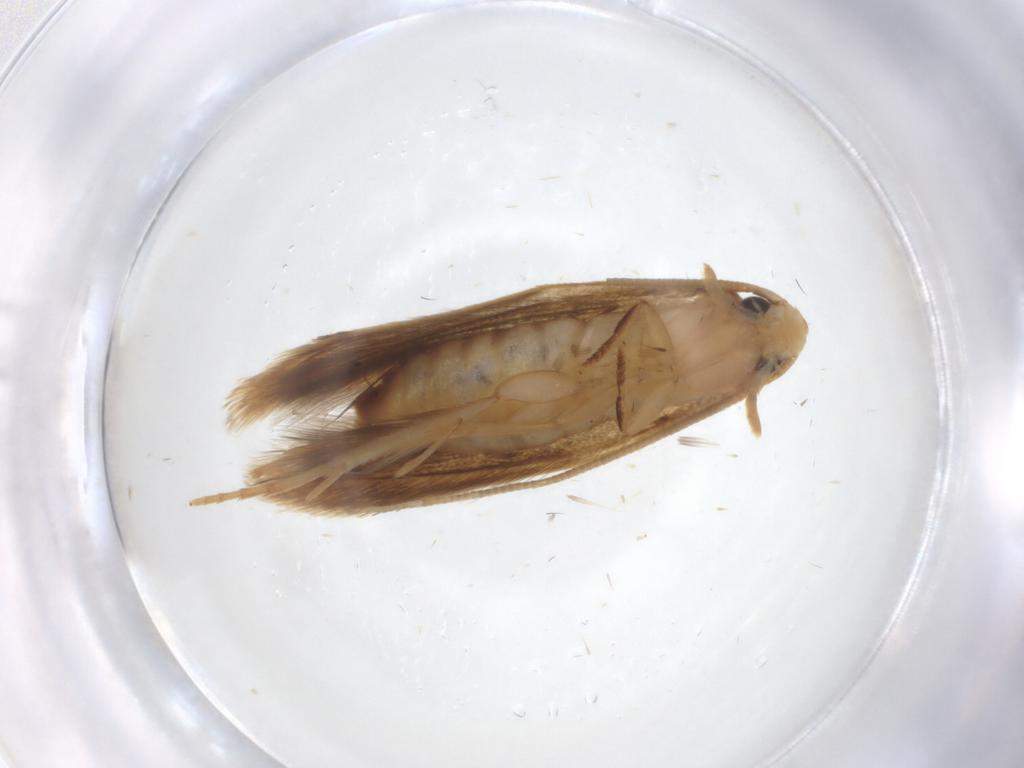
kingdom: Animalia
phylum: Arthropoda
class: Insecta
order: Lepidoptera
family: Tineidae
